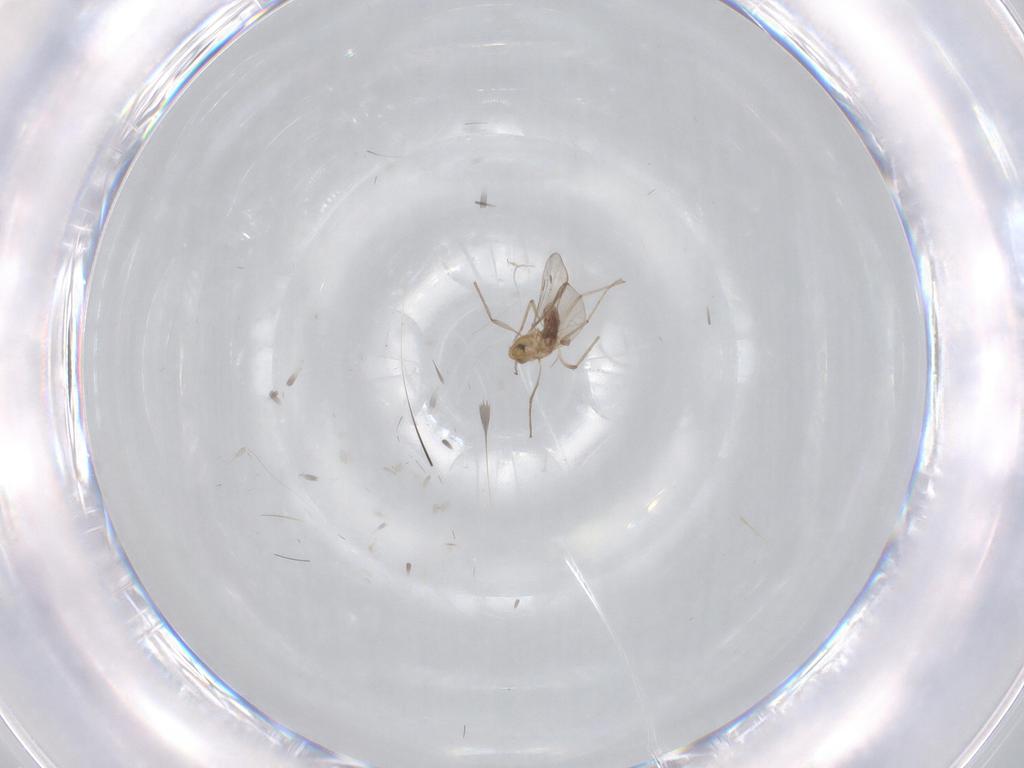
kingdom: Animalia
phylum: Arthropoda
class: Insecta
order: Diptera
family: Chironomidae
